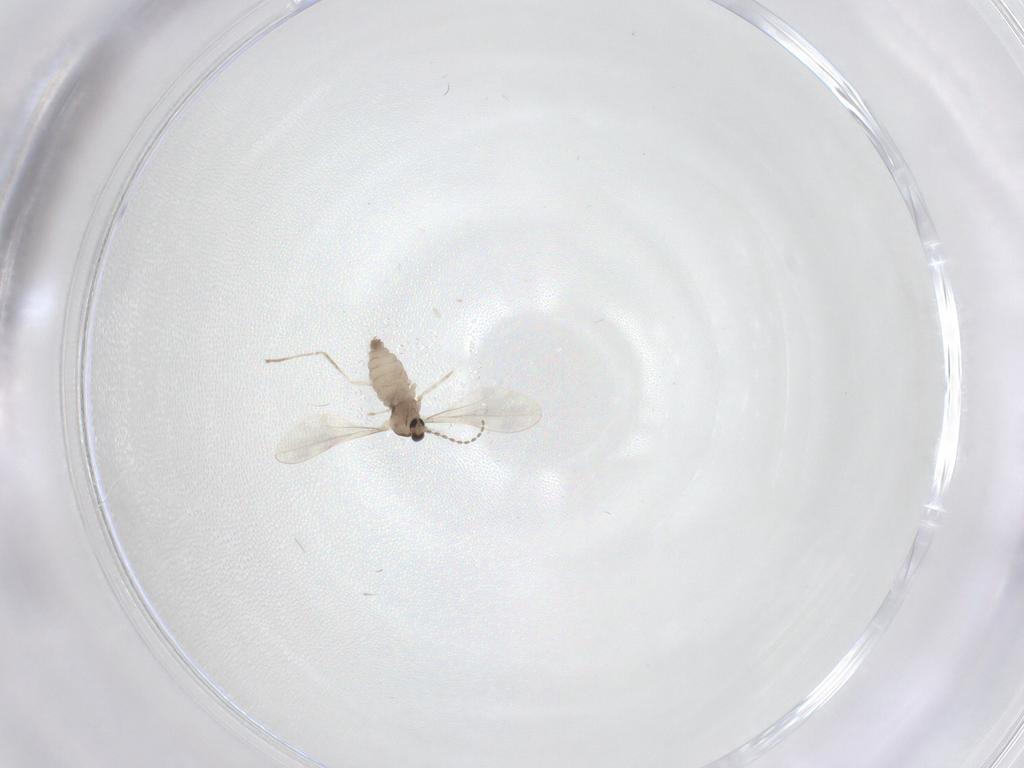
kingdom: Animalia
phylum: Arthropoda
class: Insecta
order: Diptera
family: Cecidomyiidae
